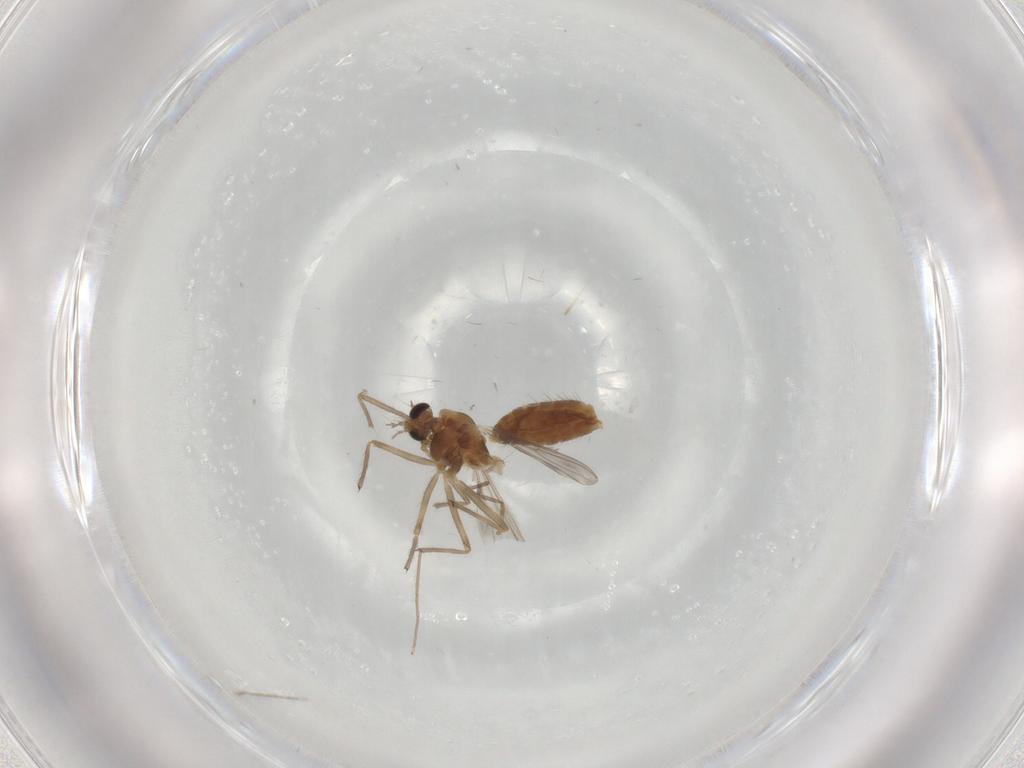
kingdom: Animalia
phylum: Arthropoda
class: Insecta
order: Diptera
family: Chironomidae
